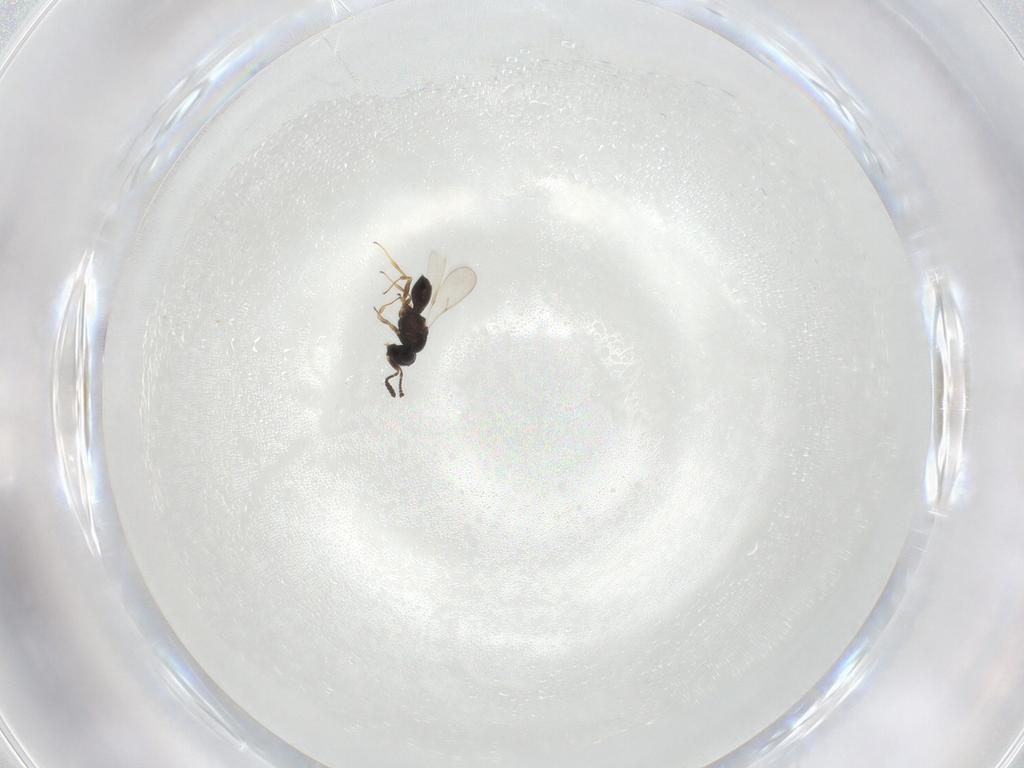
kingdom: Animalia
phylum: Arthropoda
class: Insecta
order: Hymenoptera
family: Scelionidae
